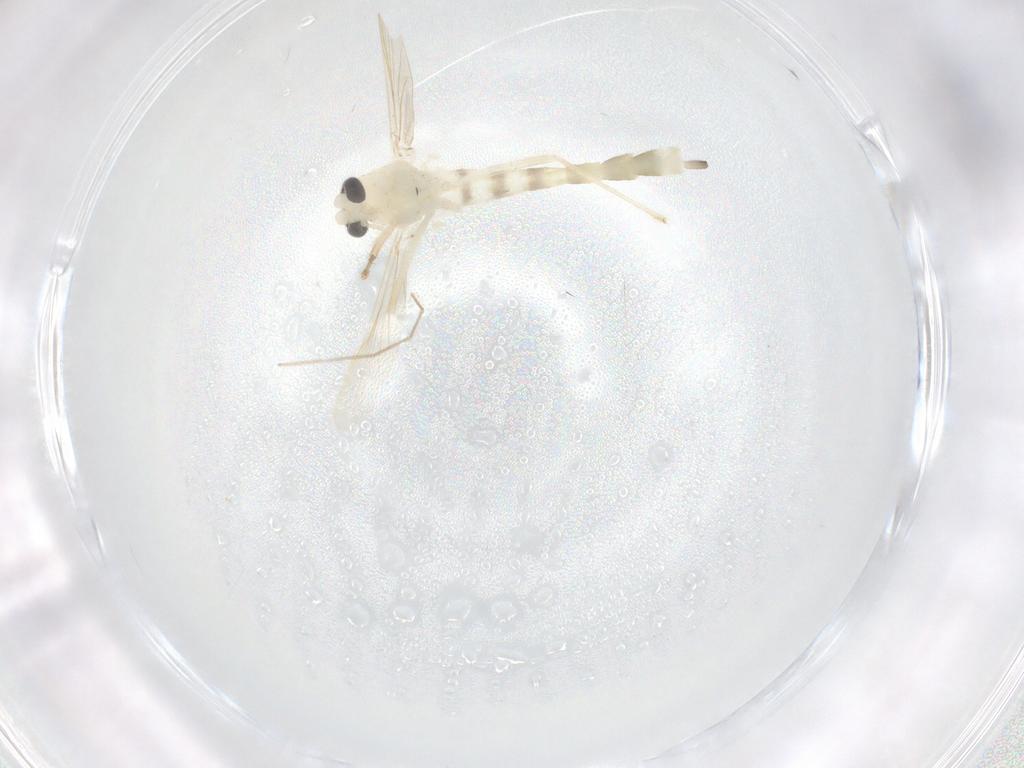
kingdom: Animalia
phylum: Arthropoda
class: Insecta
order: Diptera
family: Chironomidae
